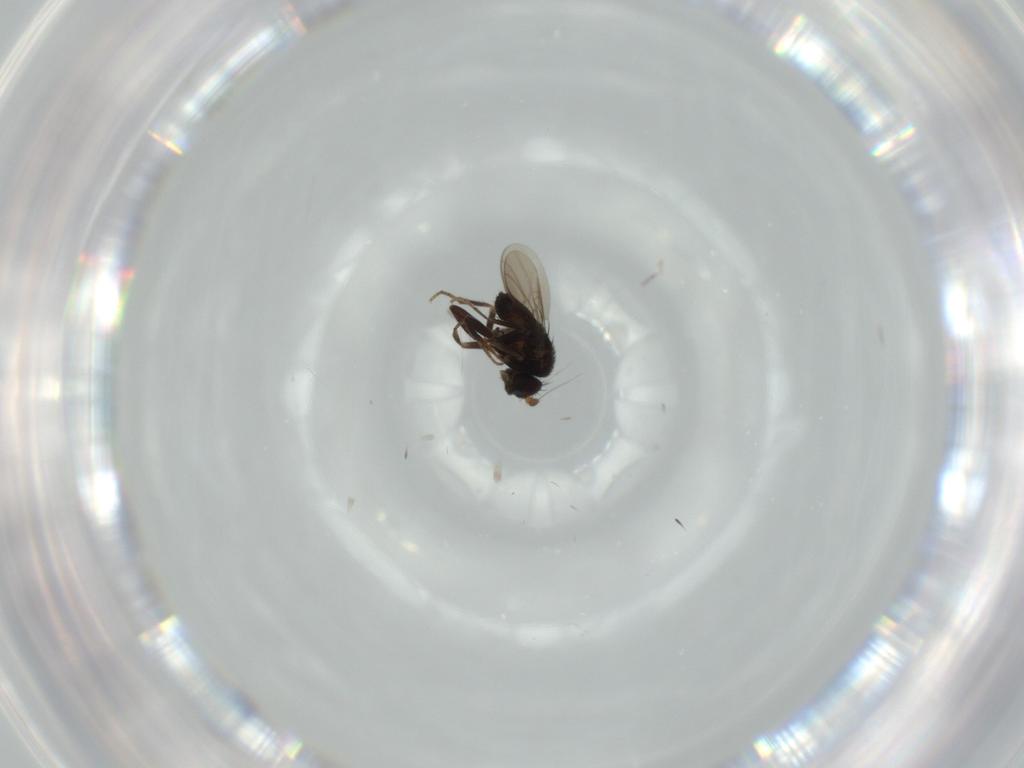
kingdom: Animalia
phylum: Arthropoda
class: Insecta
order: Diptera
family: Sphaeroceridae
